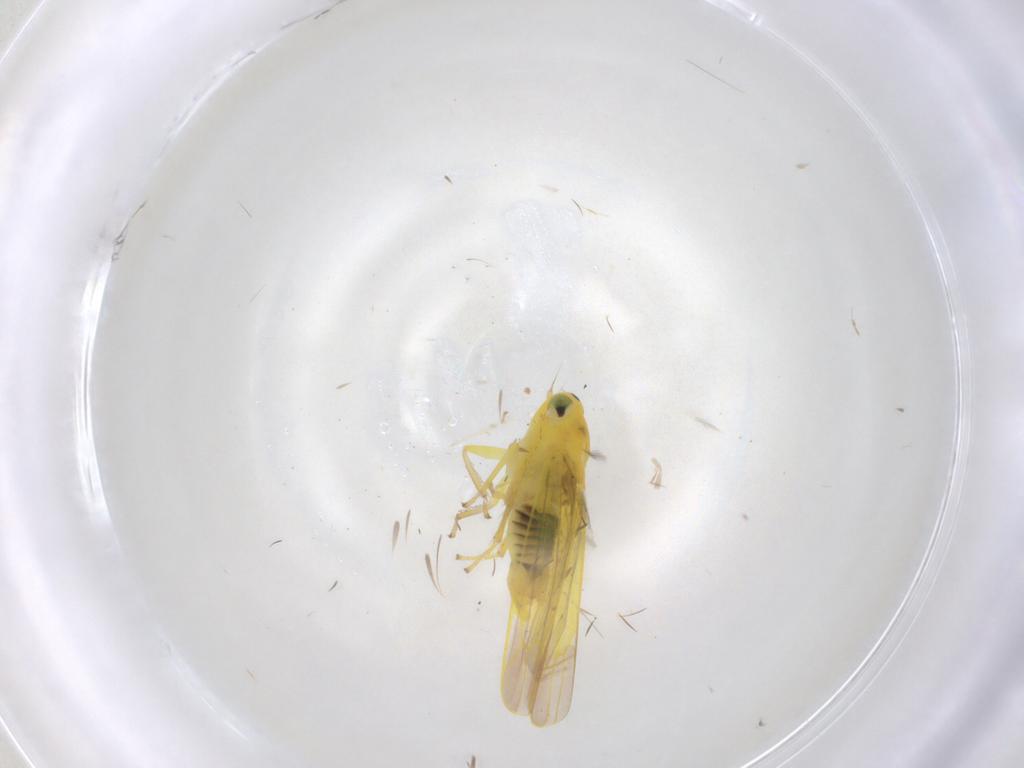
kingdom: Animalia
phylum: Arthropoda
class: Insecta
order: Hemiptera
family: Cicadellidae
